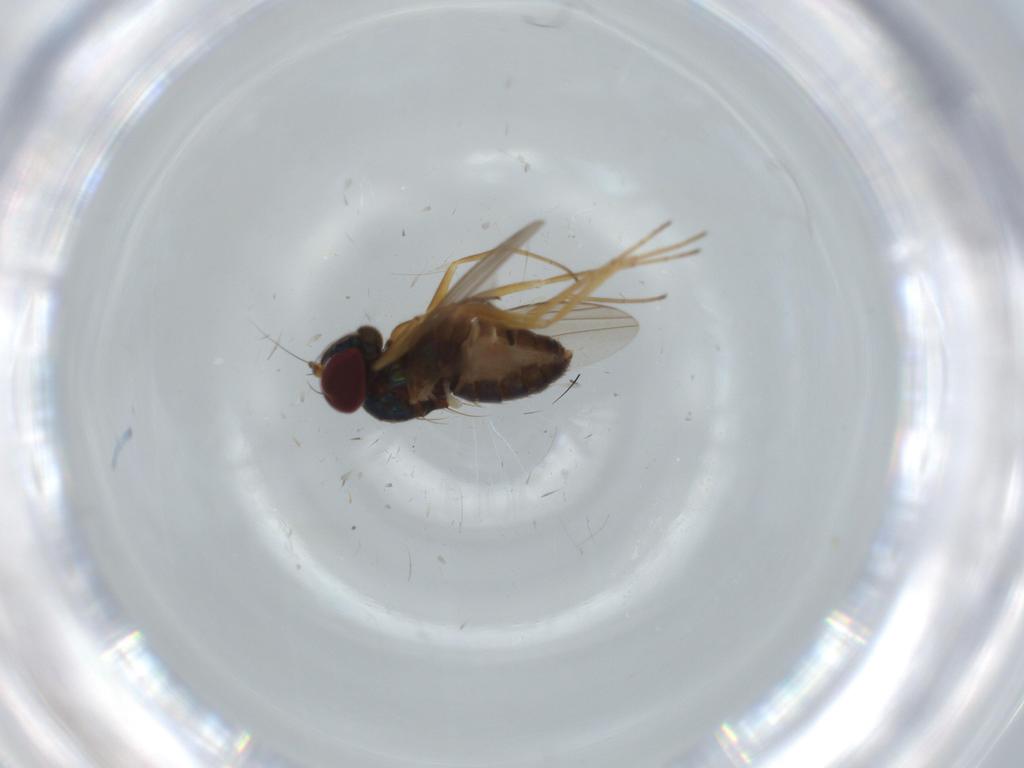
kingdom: Animalia
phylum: Arthropoda
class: Insecta
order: Diptera
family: Dolichopodidae
